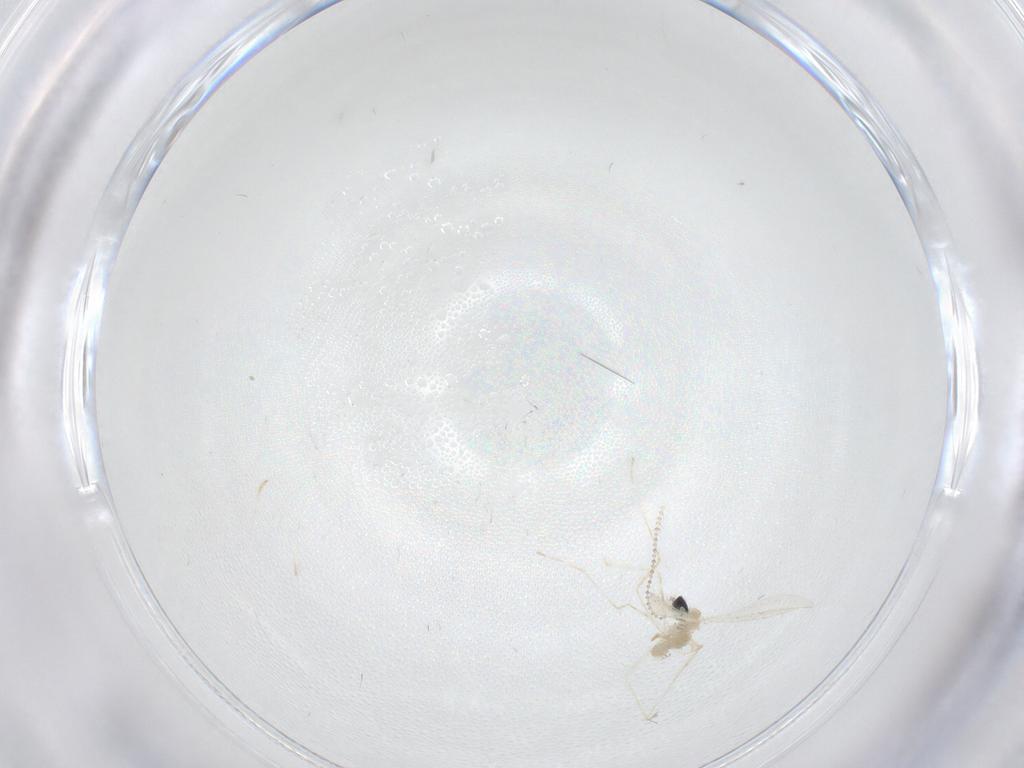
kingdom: Animalia
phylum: Arthropoda
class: Insecta
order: Diptera
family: Cecidomyiidae
